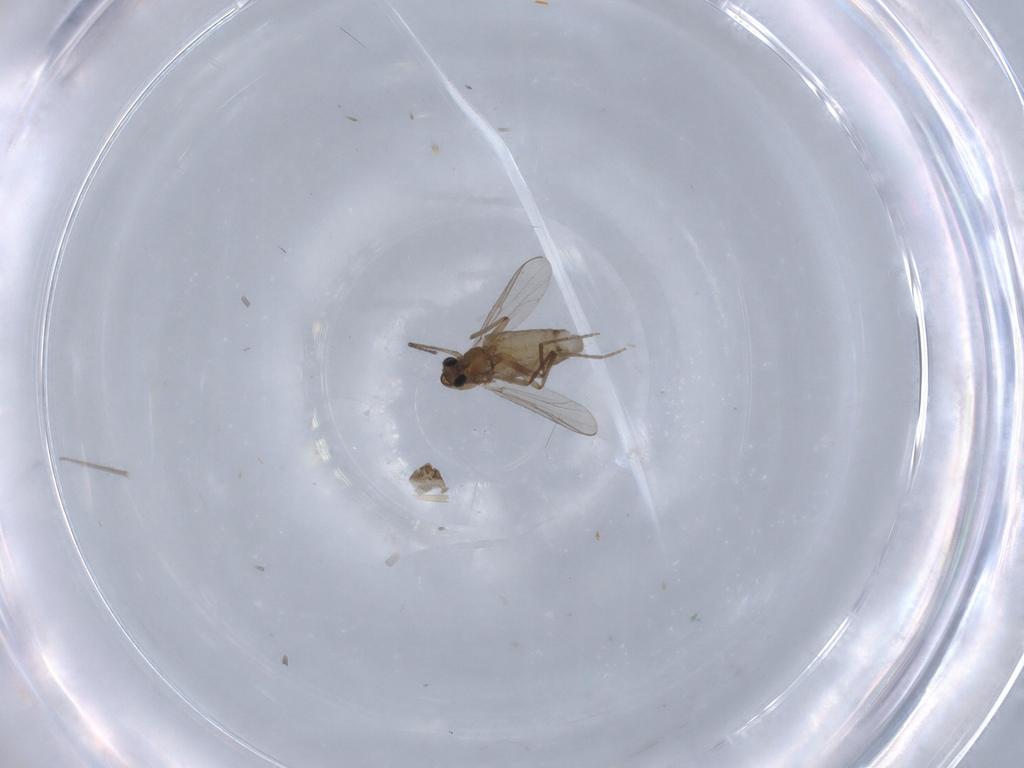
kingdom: Animalia
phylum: Arthropoda
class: Insecta
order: Diptera
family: Chironomidae
